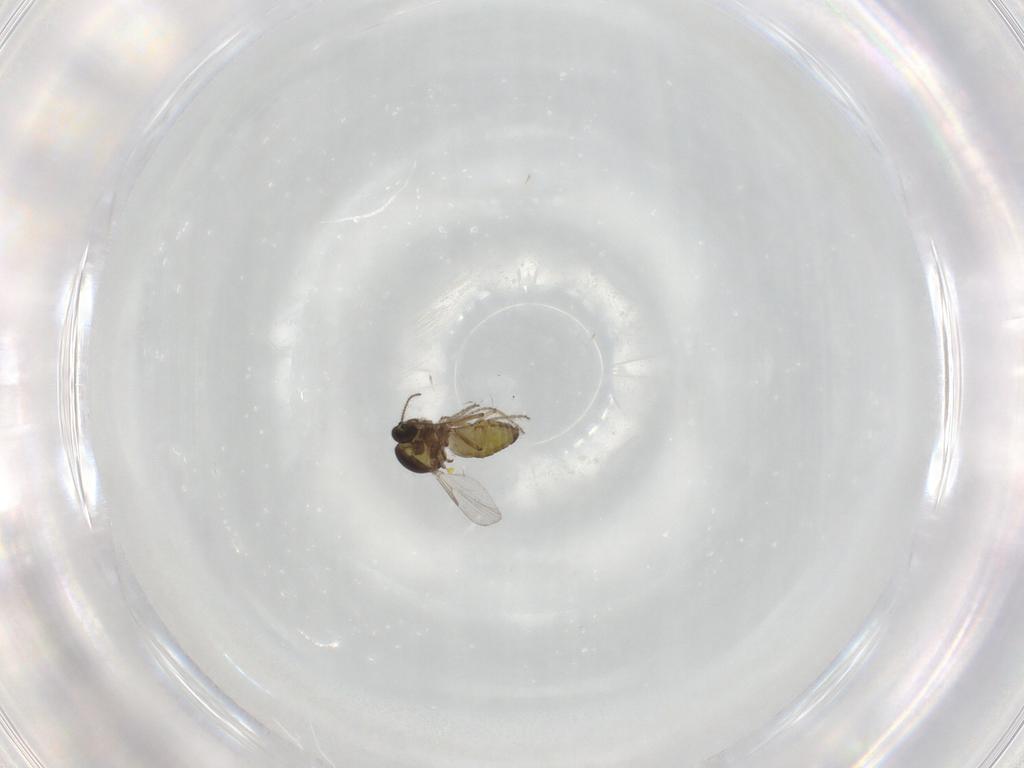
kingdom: Animalia
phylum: Arthropoda
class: Insecta
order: Diptera
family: Ceratopogonidae
